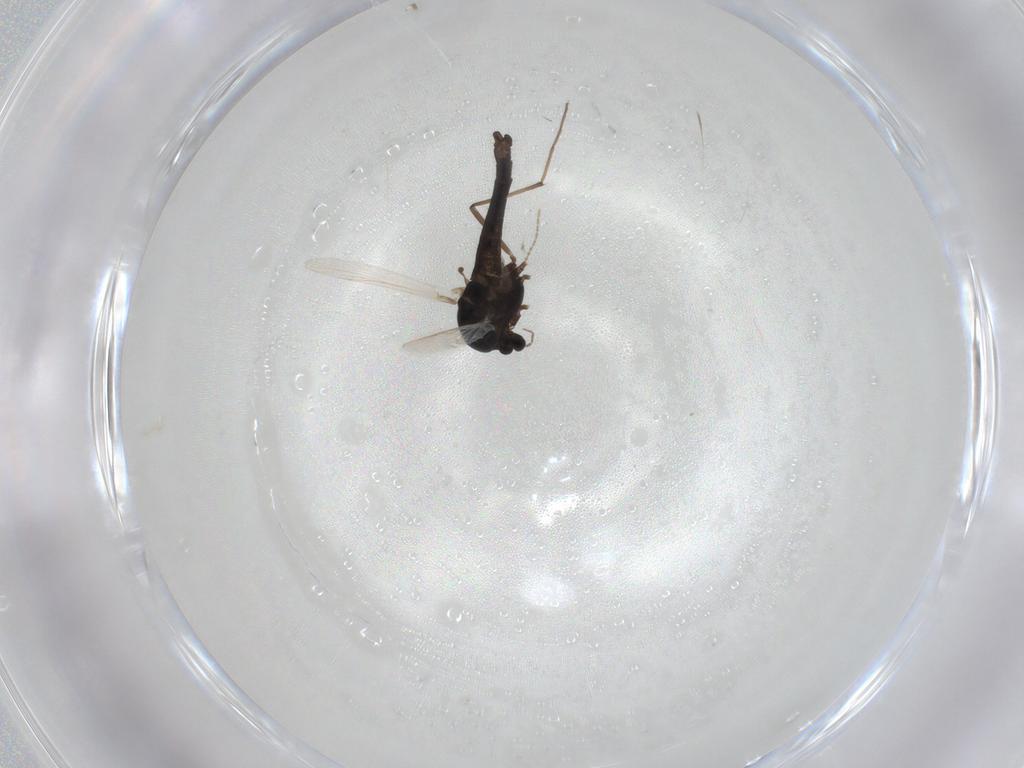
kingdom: Animalia
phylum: Arthropoda
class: Insecta
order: Diptera
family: Chironomidae
